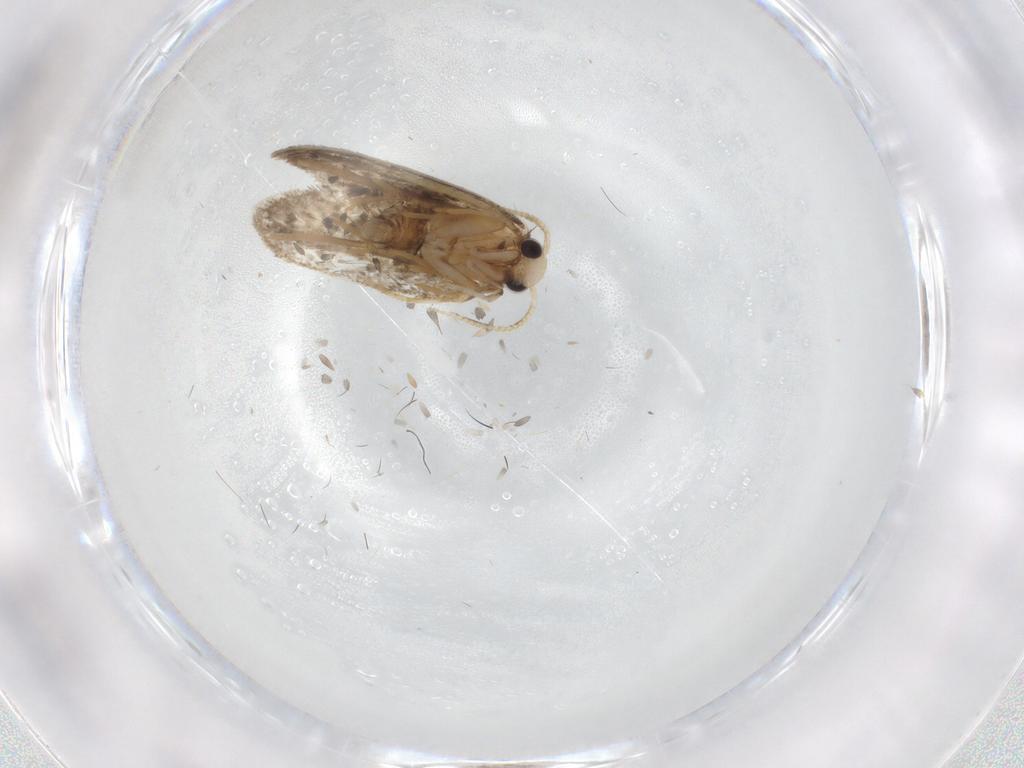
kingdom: Animalia
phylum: Arthropoda
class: Insecta
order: Lepidoptera
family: Psychidae
